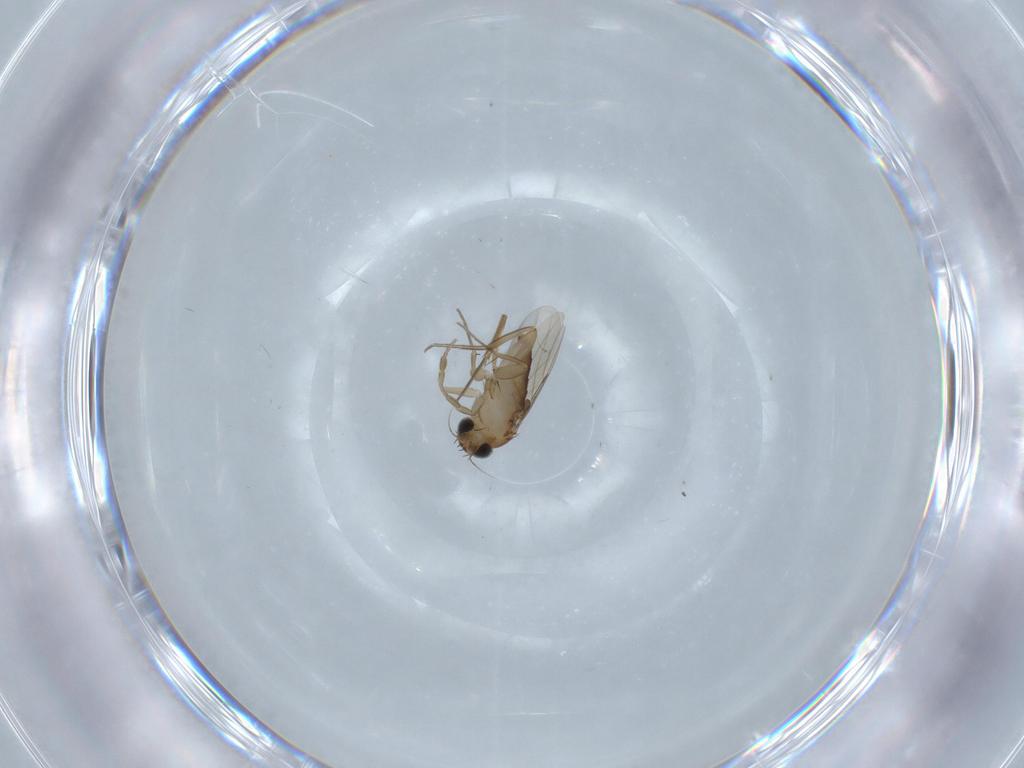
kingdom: Animalia
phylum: Arthropoda
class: Insecta
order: Diptera
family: Phoridae
